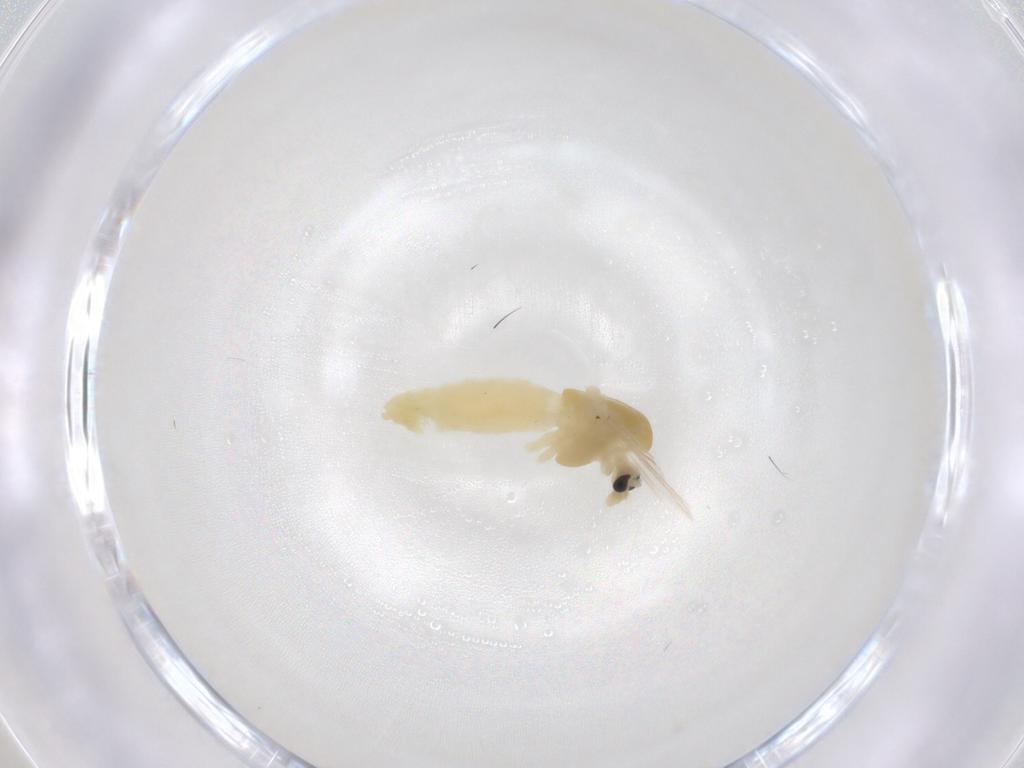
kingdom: Animalia
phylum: Arthropoda
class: Insecta
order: Diptera
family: Chironomidae
